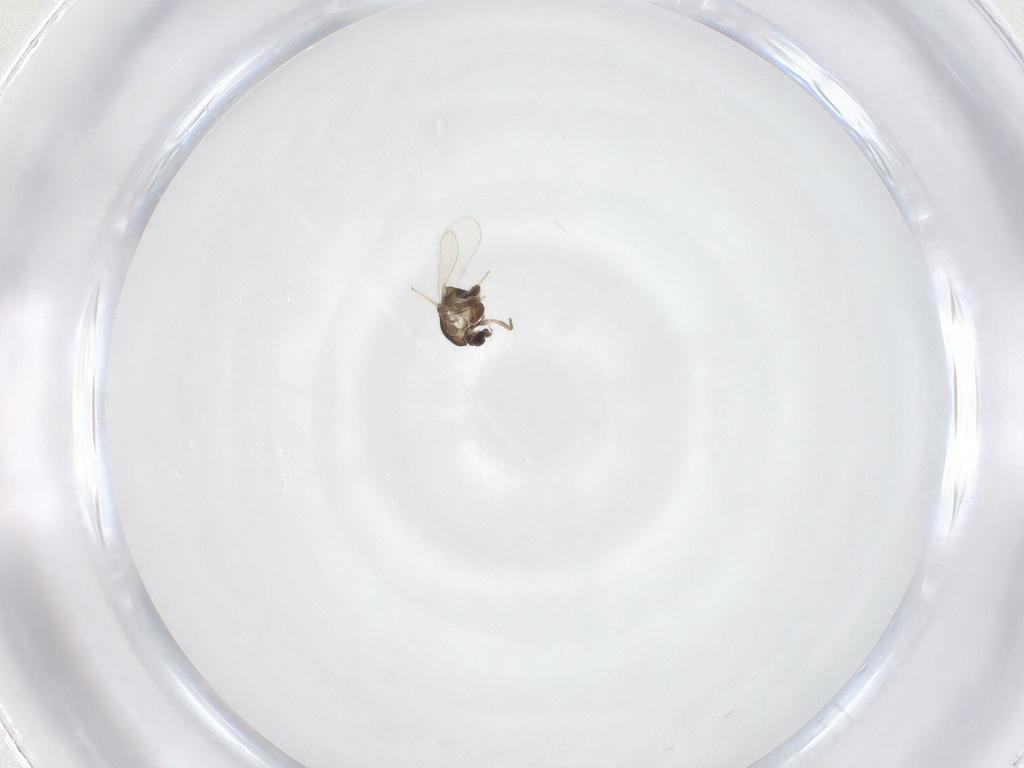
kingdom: Animalia
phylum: Arthropoda
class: Insecta
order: Diptera
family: Chironomidae
